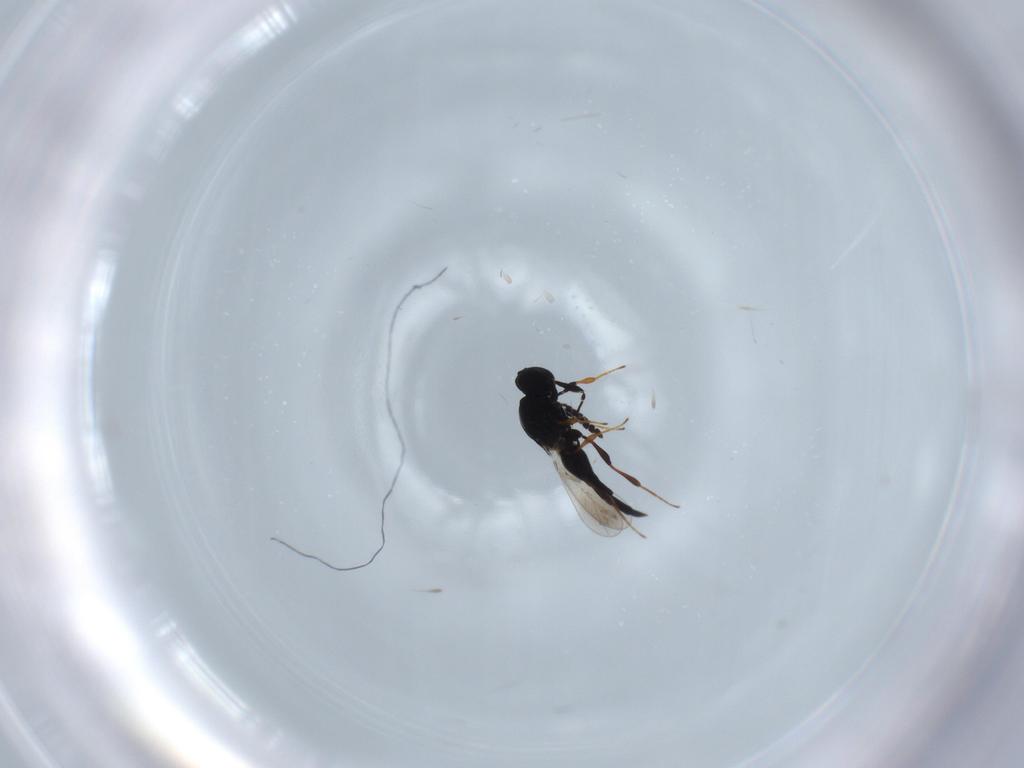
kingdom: Animalia
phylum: Arthropoda
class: Insecta
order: Hymenoptera
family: Platygastridae
